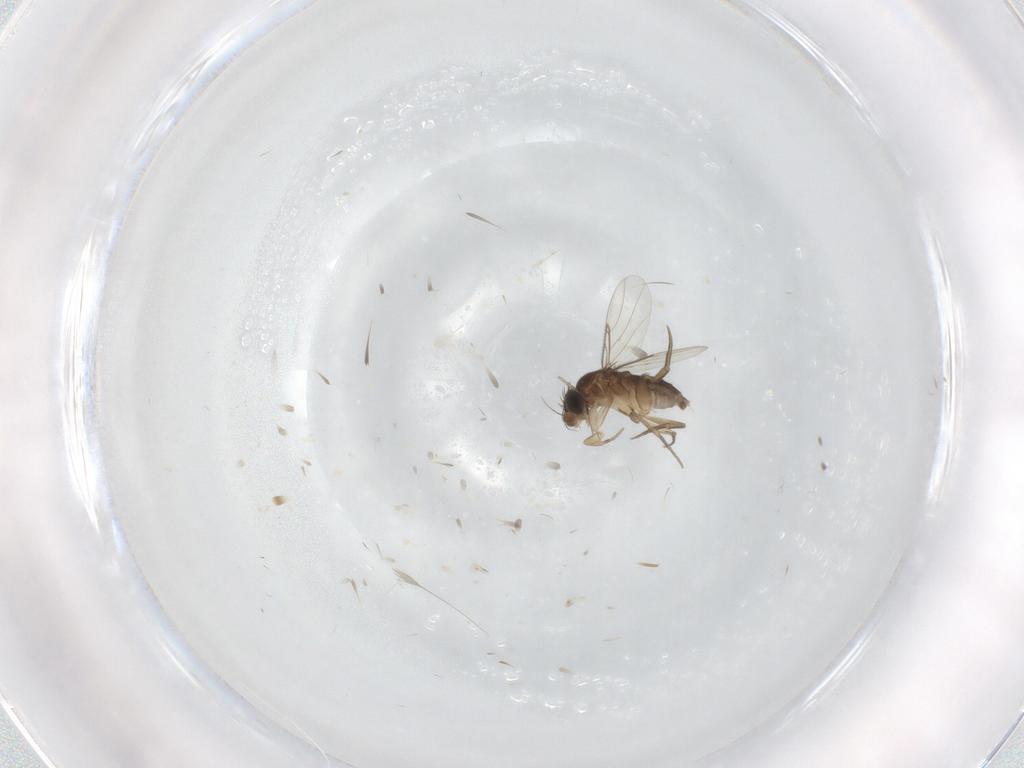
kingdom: Animalia
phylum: Arthropoda
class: Insecta
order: Diptera
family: Phoridae
